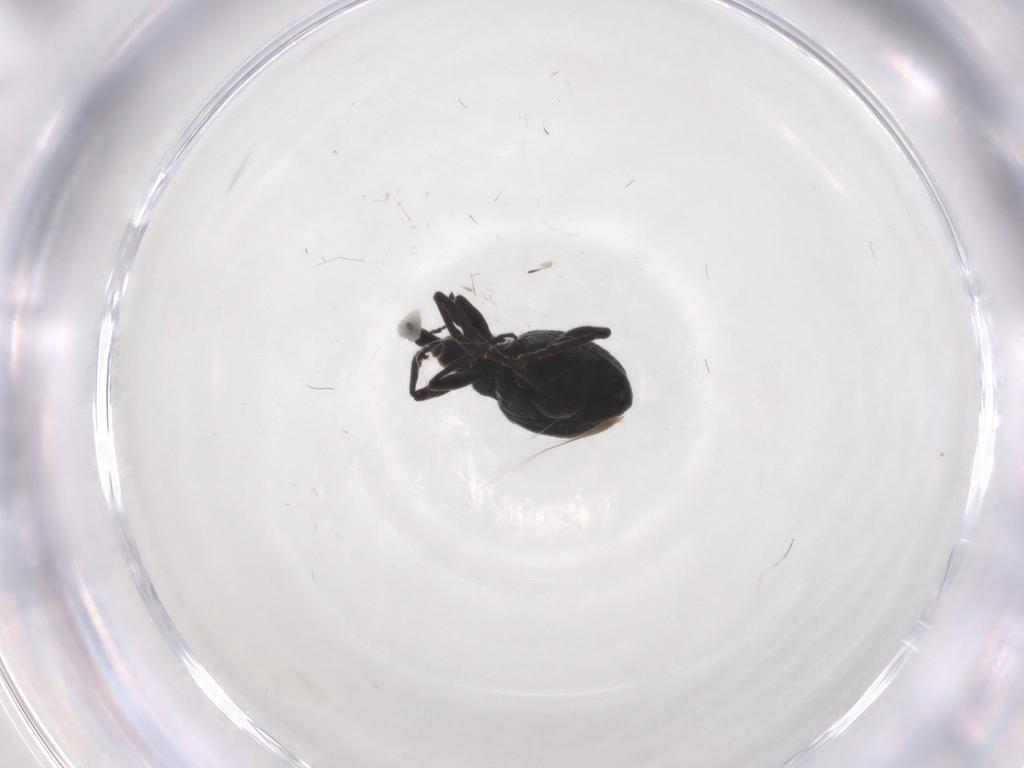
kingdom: Animalia
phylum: Arthropoda
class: Insecta
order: Coleoptera
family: Brentidae
